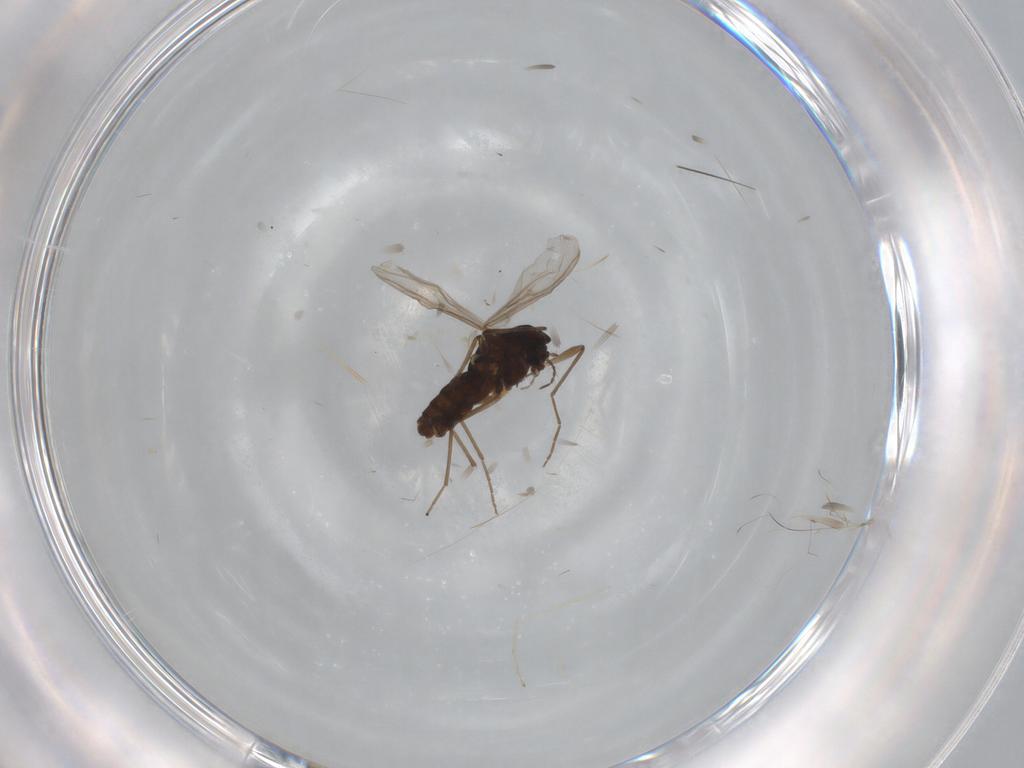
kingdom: Animalia
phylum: Arthropoda
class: Insecta
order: Diptera
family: Chironomidae
